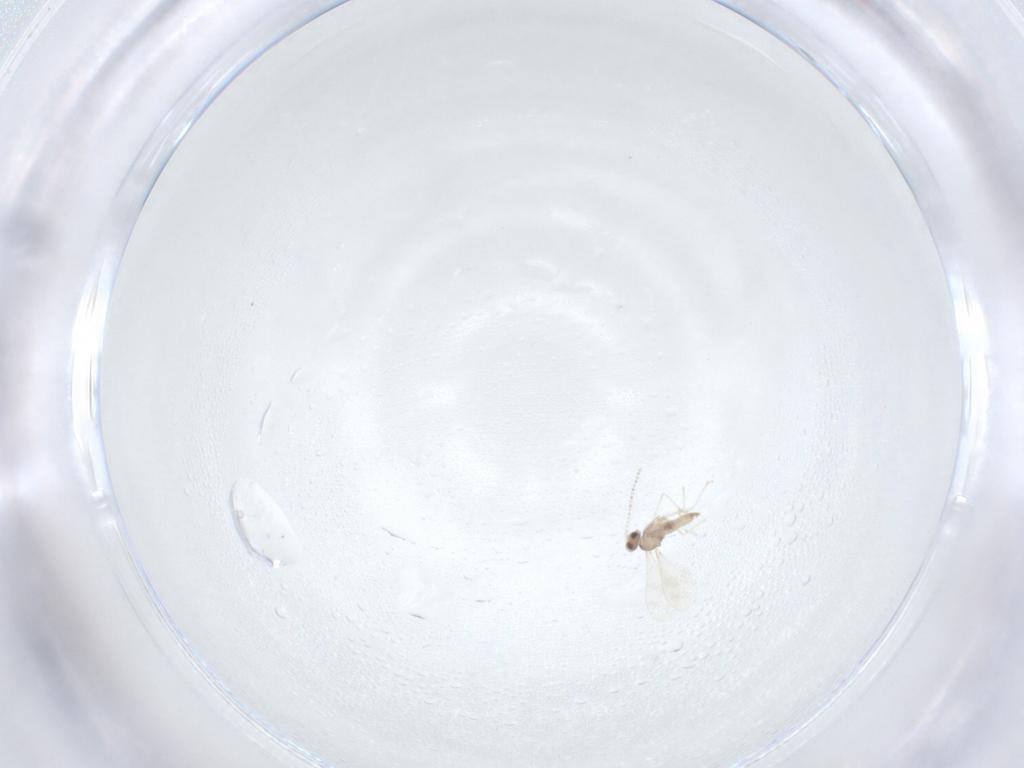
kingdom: Animalia
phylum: Arthropoda
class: Insecta
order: Diptera
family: Cecidomyiidae
